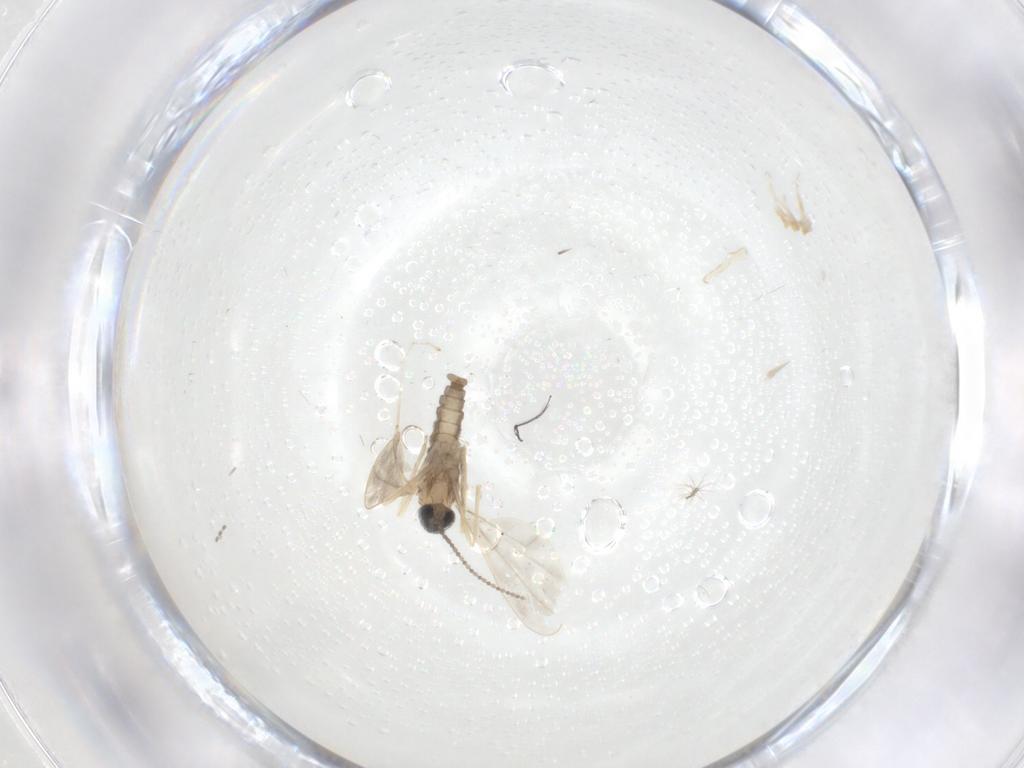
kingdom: Animalia
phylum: Arthropoda
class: Insecta
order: Diptera
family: Chironomidae
